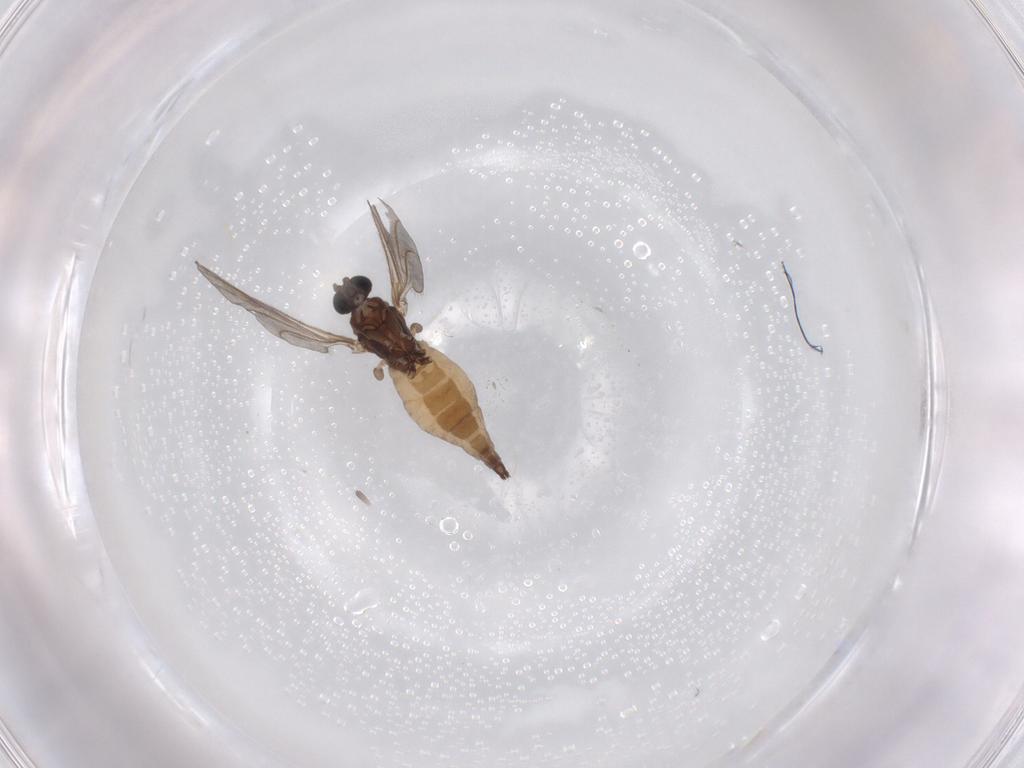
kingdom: Animalia
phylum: Arthropoda
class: Insecta
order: Diptera
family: Sciaridae
